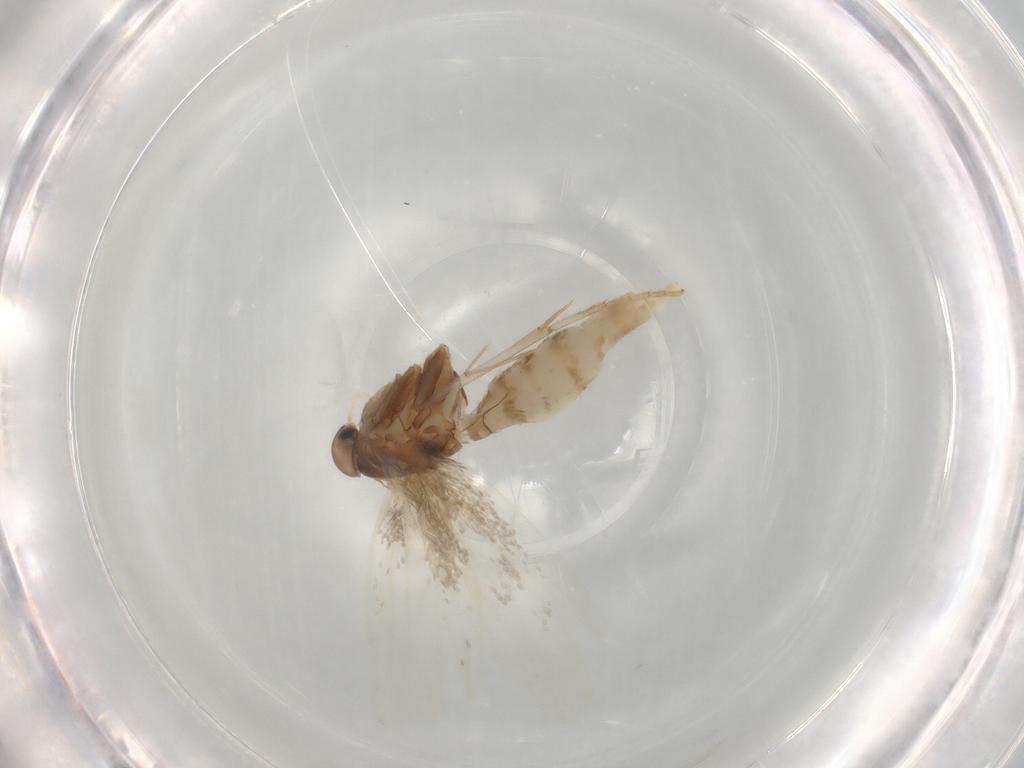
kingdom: Animalia
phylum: Arthropoda
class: Insecta
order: Lepidoptera
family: Elachistidae
